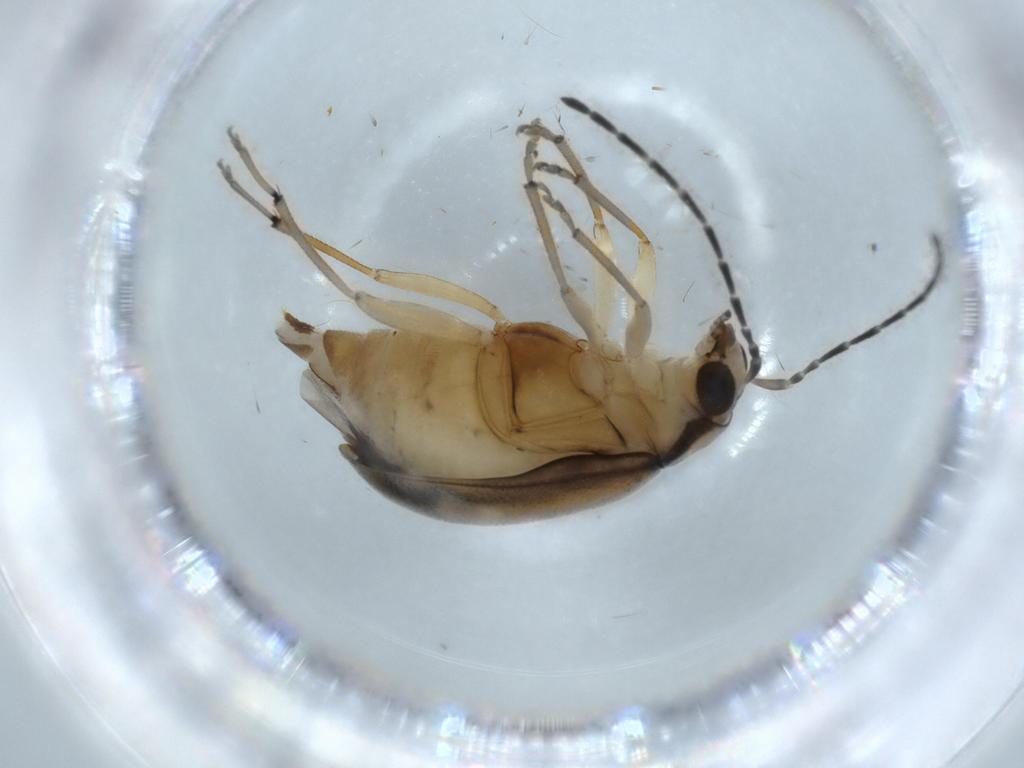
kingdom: Animalia
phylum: Arthropoda
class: Insecta
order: Coleoptera
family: Chrysomelidae
